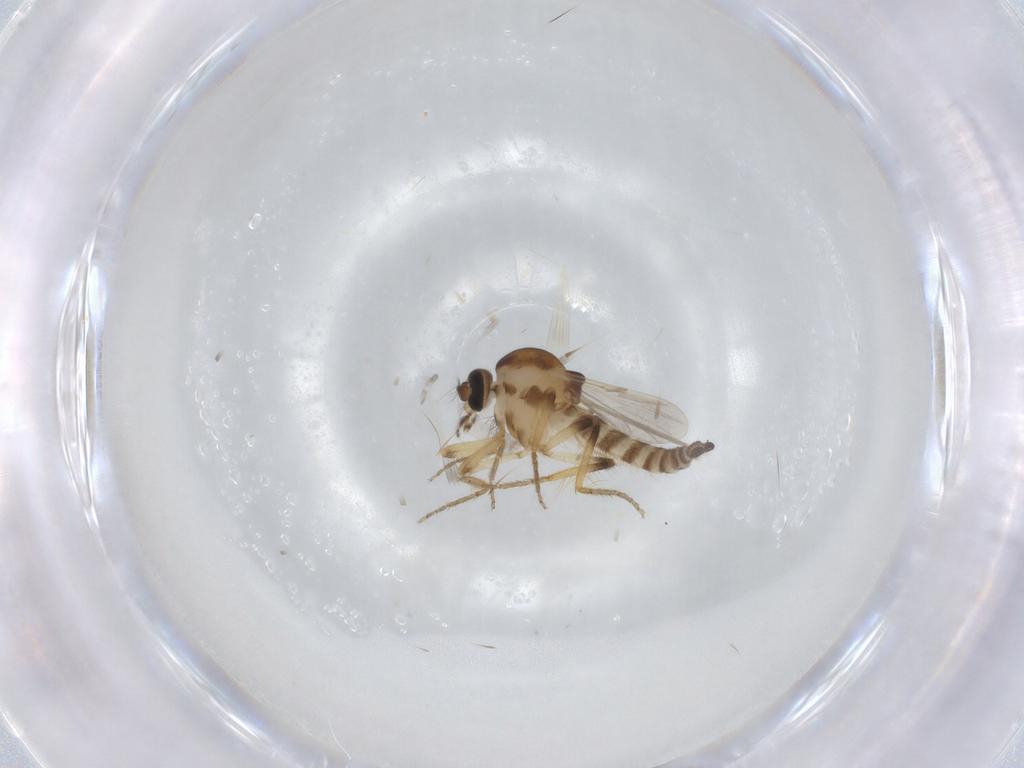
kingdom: Animalia
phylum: Arthropoda
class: Insecta
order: Diptera
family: Ceratopogonidae
